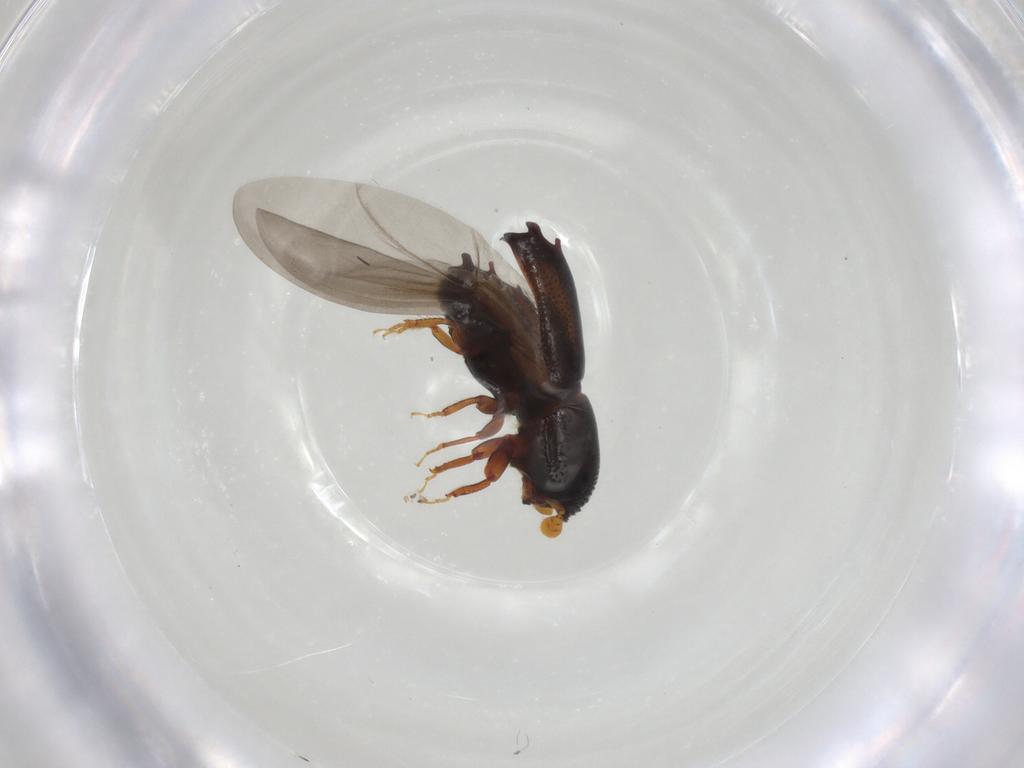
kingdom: Animalia
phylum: Arthropoda
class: Insecta
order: Coleoptera
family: Curculionidae
